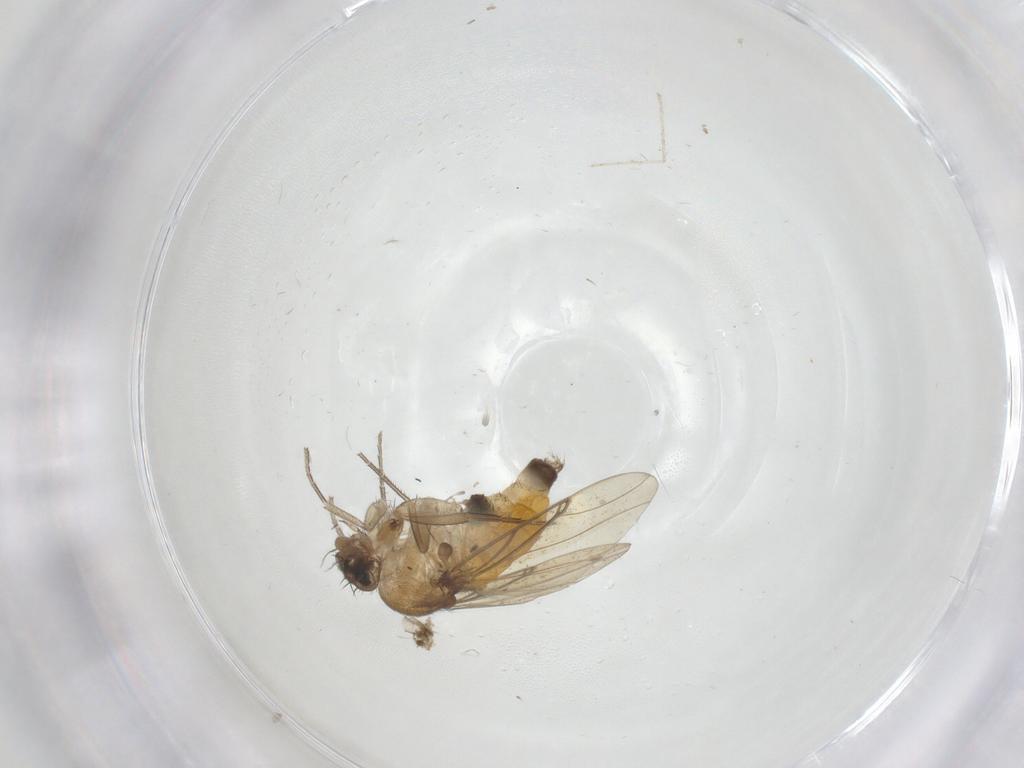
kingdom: Animalia
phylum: Arthropoda
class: Insecta
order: Diptera
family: Phoridae
